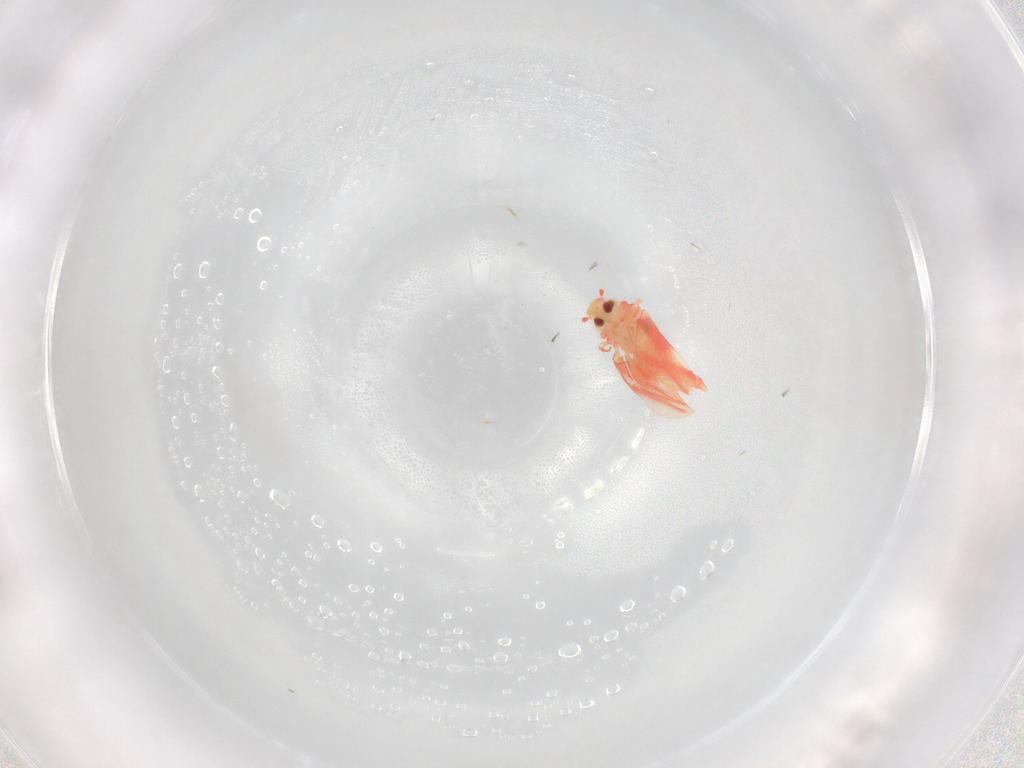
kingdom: Animalia
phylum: Arthropoda
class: Insecta
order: Hemiptera
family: Aleyrodidae
